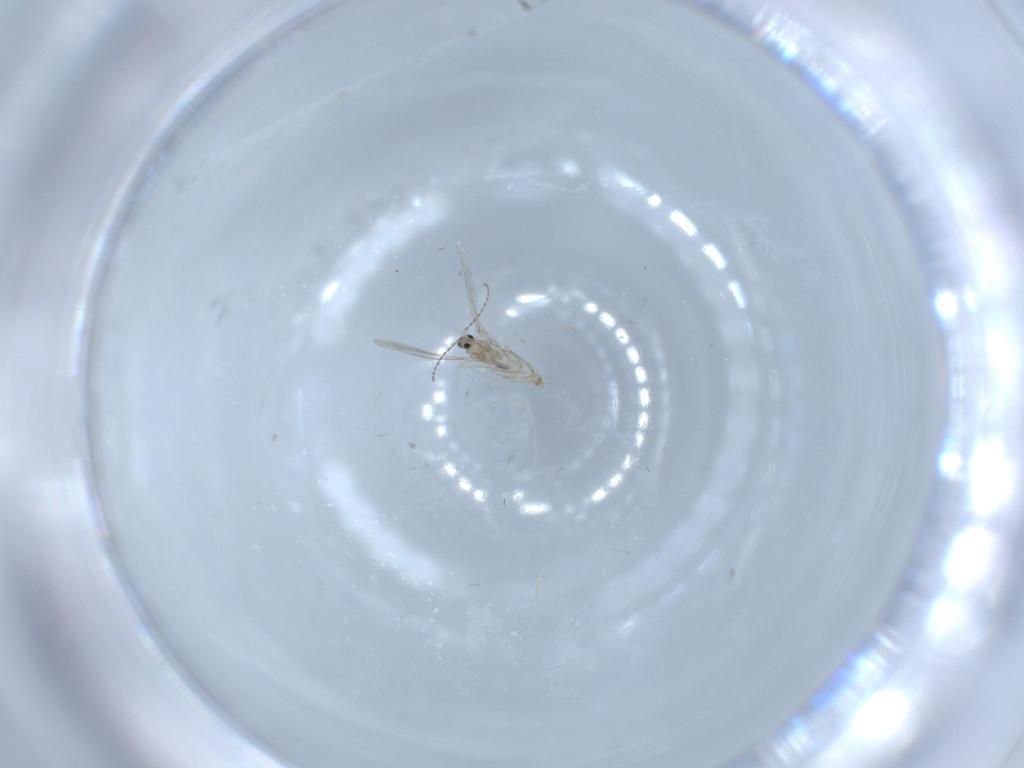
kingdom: Animalia
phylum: Arthropoda
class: Insecta
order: Diptera
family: Cecidomyiidae
